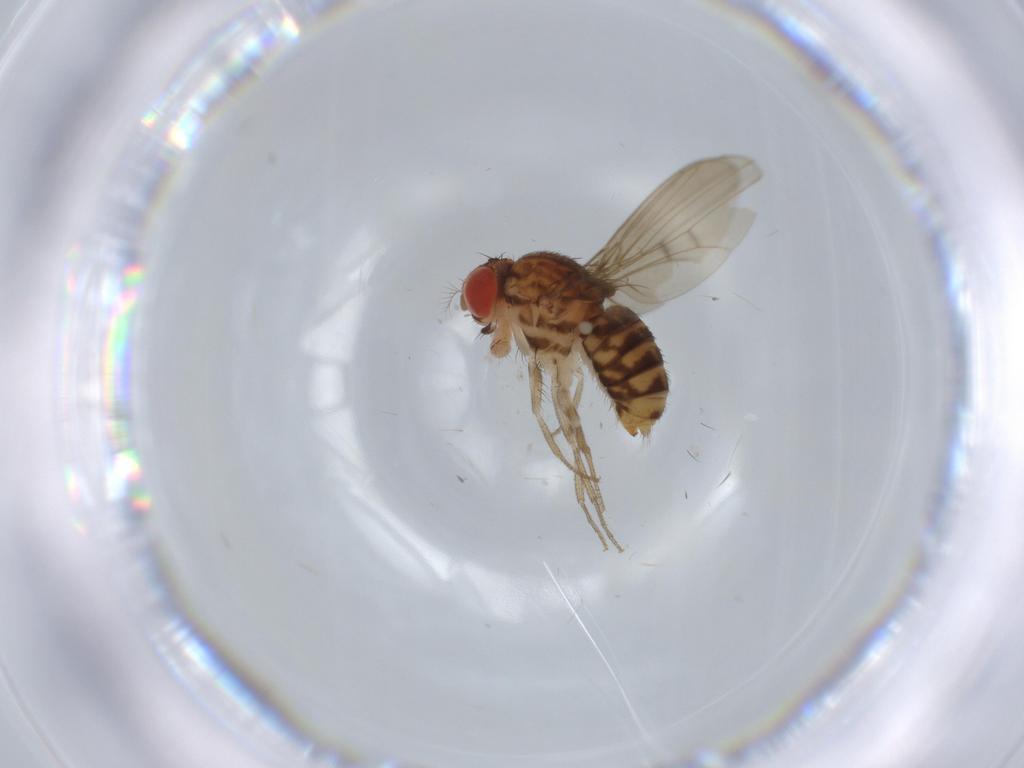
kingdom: Animalia
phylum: Arthropoda
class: Insecta
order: Diptera
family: Drosophilidae
